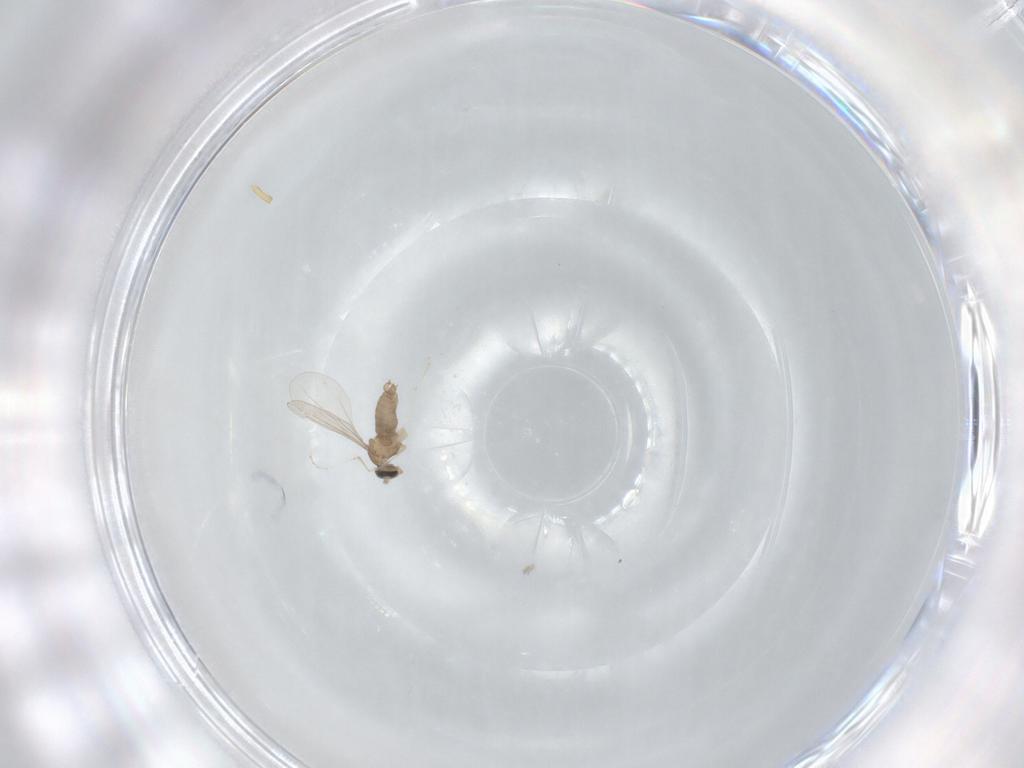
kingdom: Animalia
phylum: Arthropoda
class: Insecta
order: Diptera
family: Cecidomyiidae
